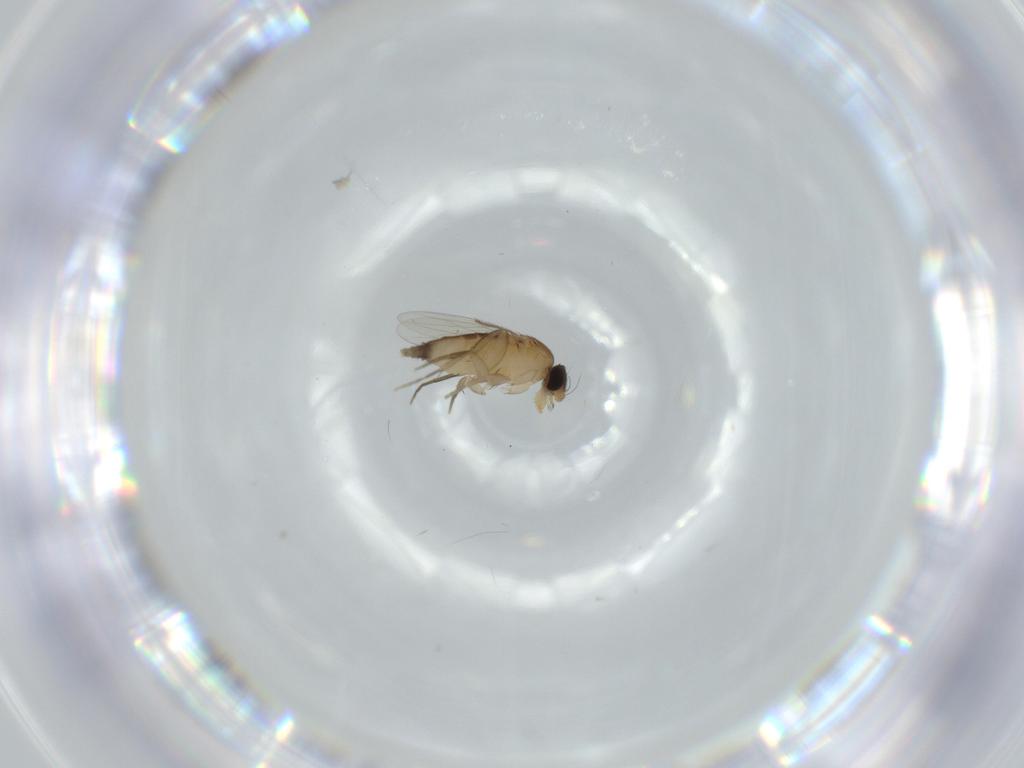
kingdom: Animalia
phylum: Arthropoda
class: Insecta
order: Diptera
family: Phoridae
